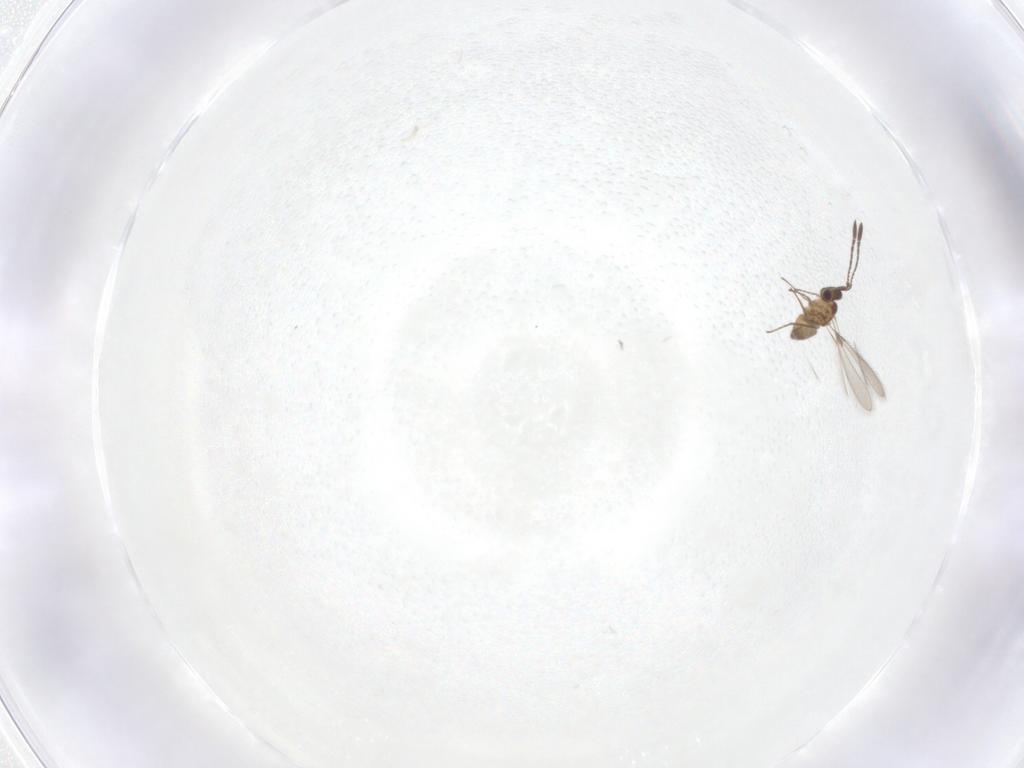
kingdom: Animalia
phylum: Arthropoda
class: Insecta
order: Hymenoptera
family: Mymaridae
